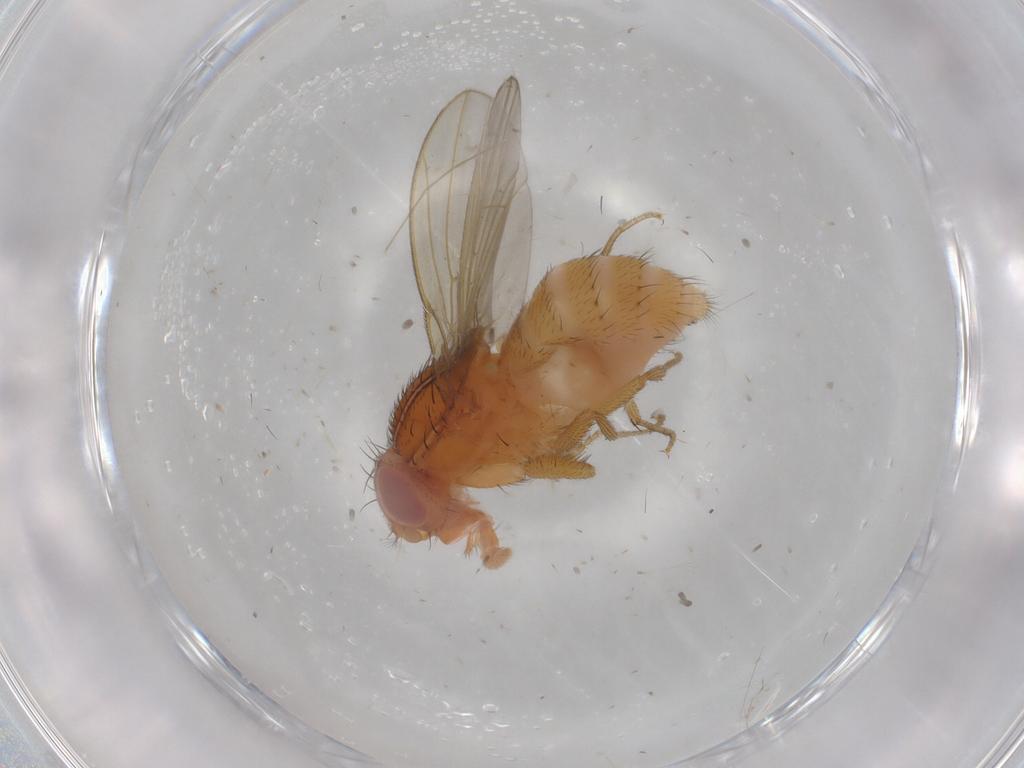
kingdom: Animalia
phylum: Arthropoda
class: Insecta
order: Diptera
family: Drosophilidae
